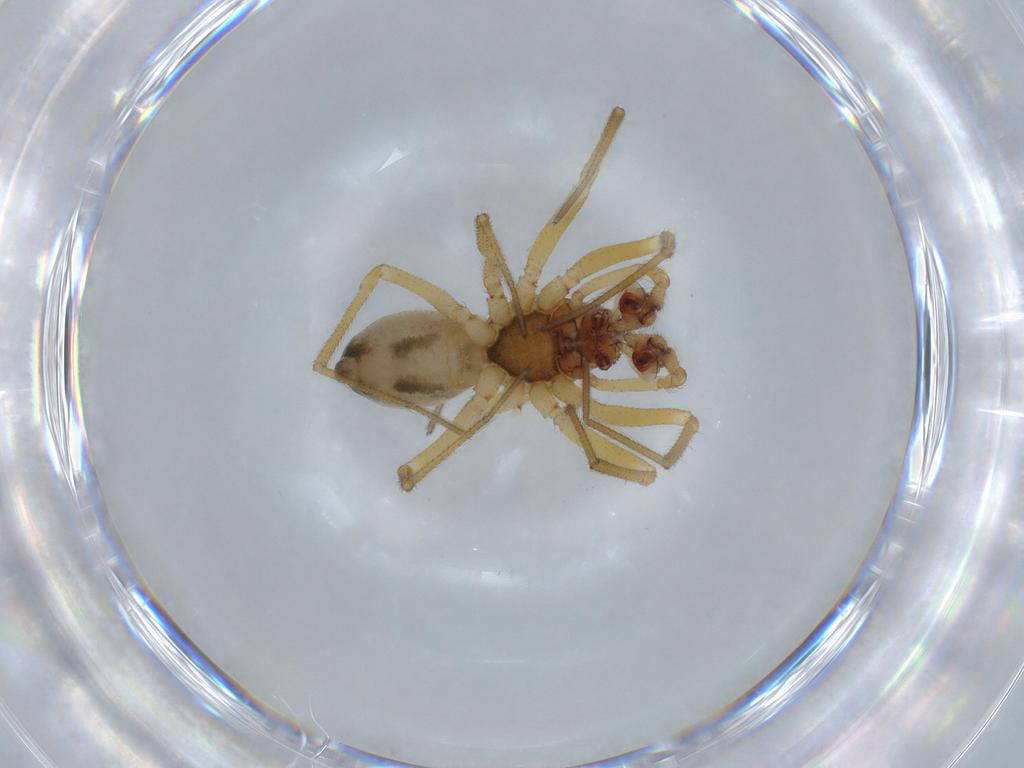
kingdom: Animalia
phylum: Arthropoda
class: Arachnida
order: Araneae
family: Linyphiidae
